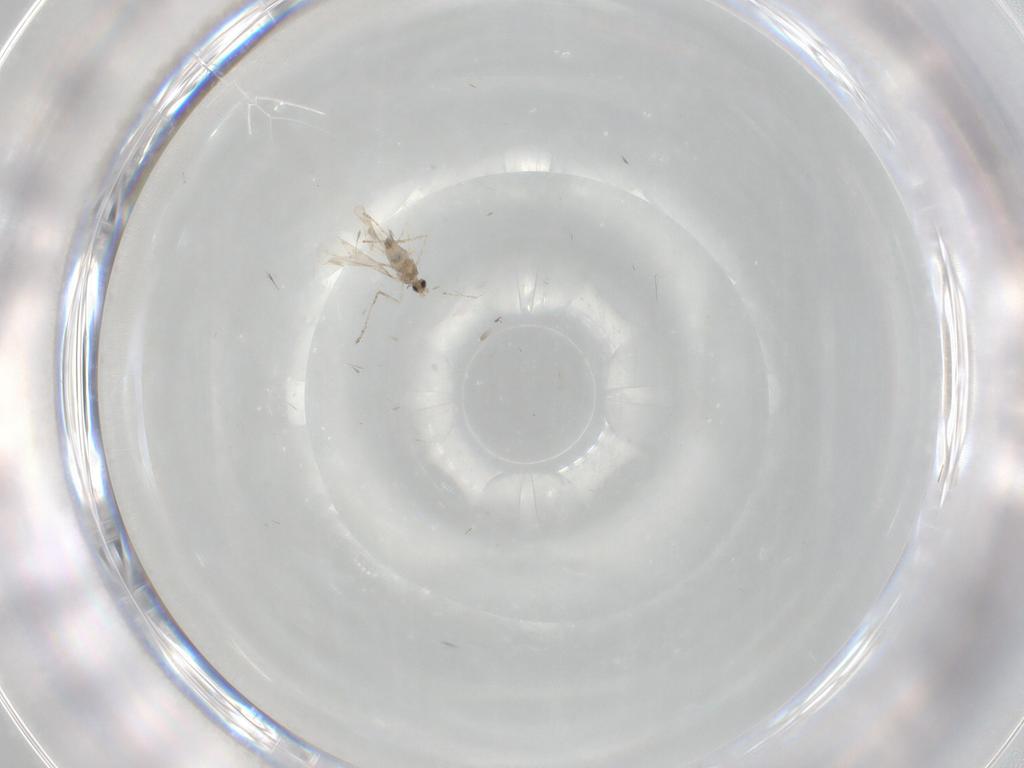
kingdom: Animalia
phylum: Arthropoda
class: Insecta
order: Diptera
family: Cecidomyiidae
